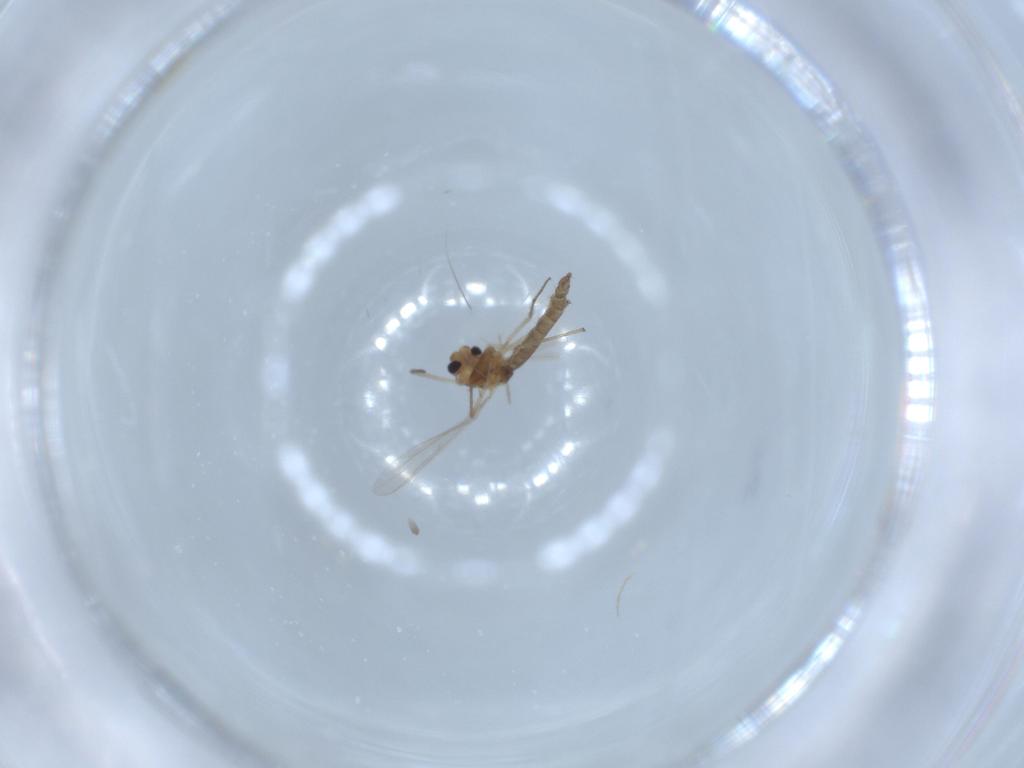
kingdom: Animalia
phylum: Arthropoda
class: Insecta
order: Diptera
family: Chironomidae
